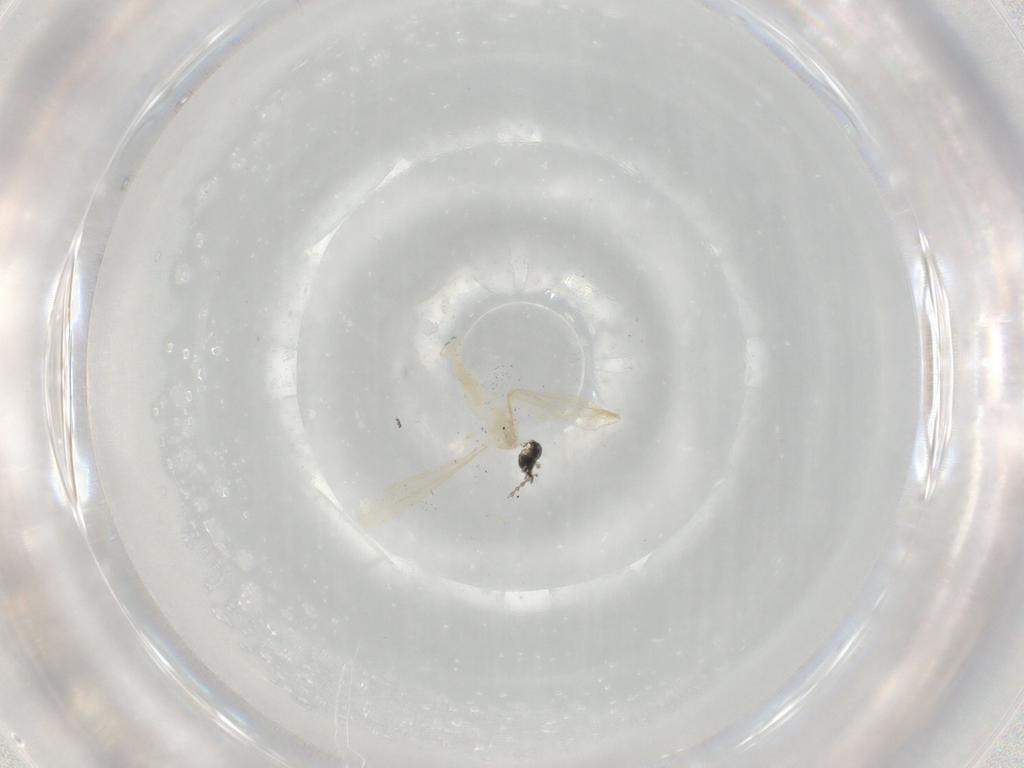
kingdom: Animalia
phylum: Arthropoda
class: Insecta
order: Diptera
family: Cecidomyiidae
